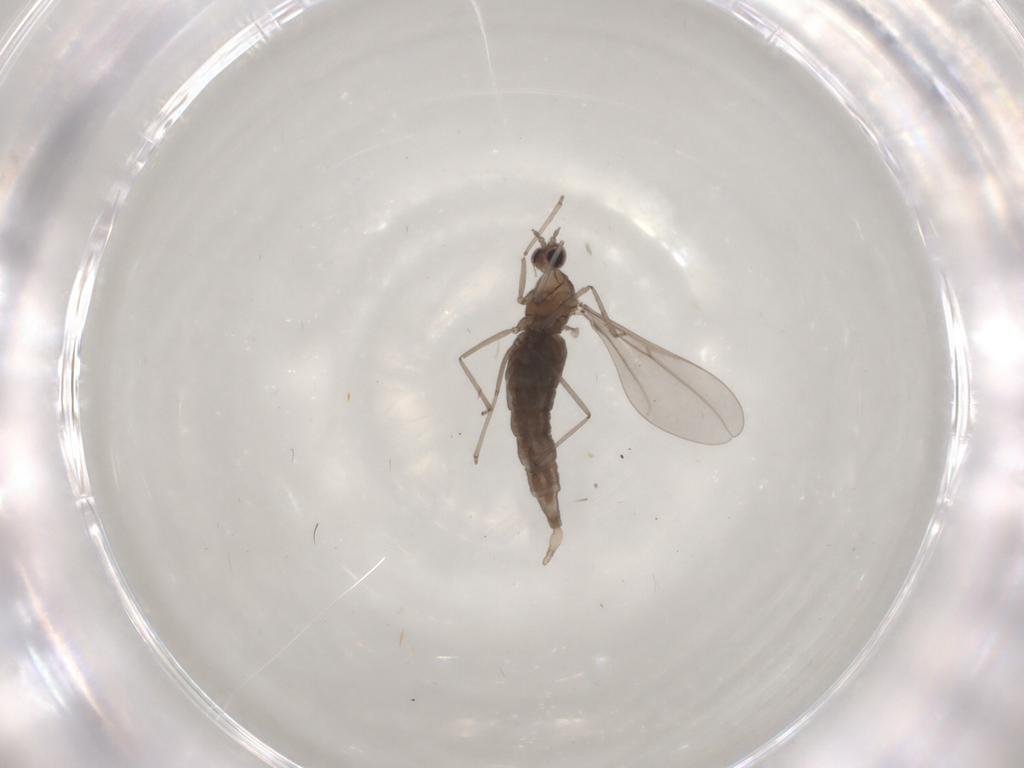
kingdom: Animalia
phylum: Arthropoda
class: Insecta
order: Diptera
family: Cecidomyiidae
